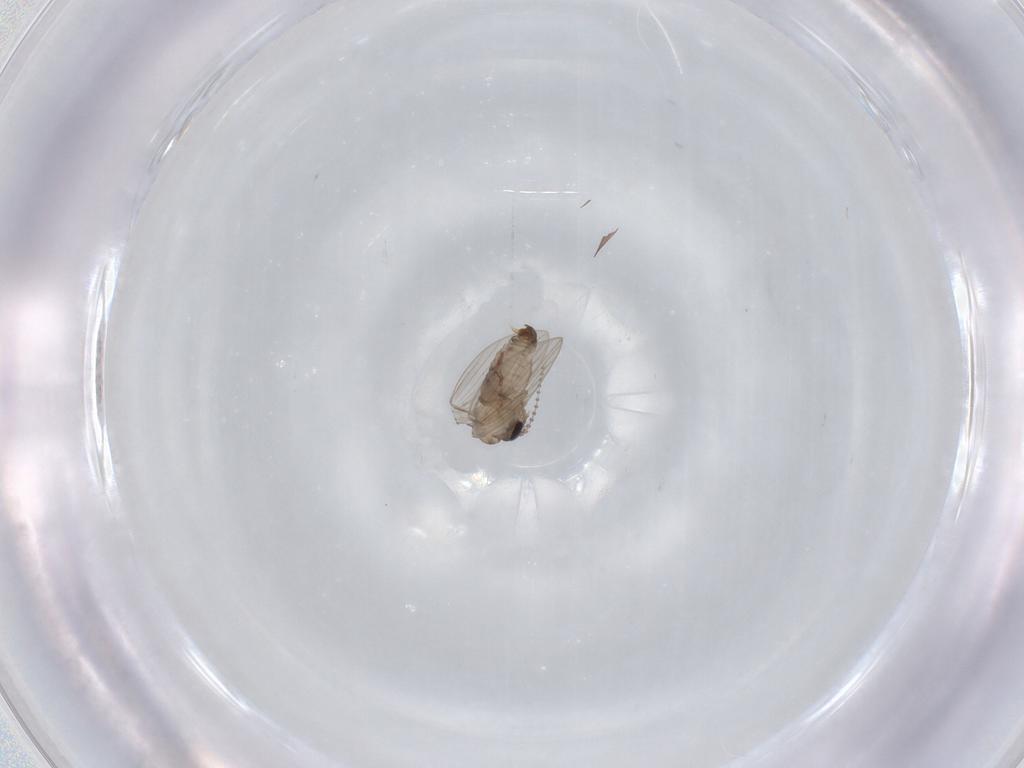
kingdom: Animalia
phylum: Arthropoda
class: Insecta
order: Diptera
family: Psychodidae
